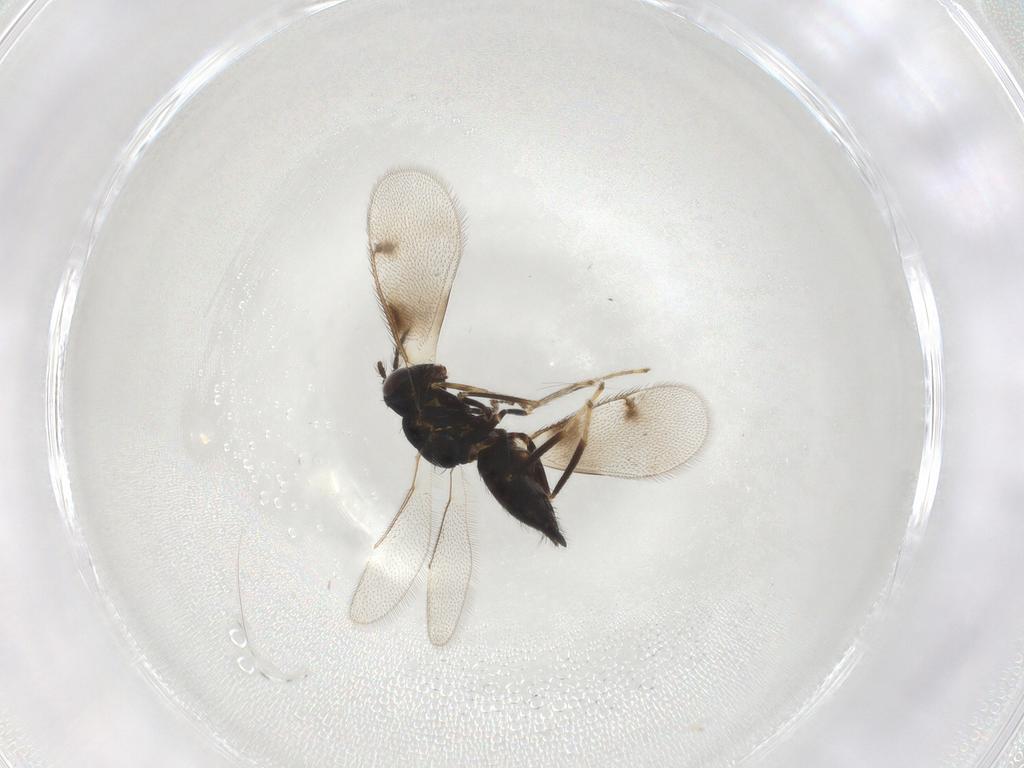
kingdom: Animalia
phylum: Arthropoda
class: Insecta
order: Hymenoptera
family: Eulophidae
